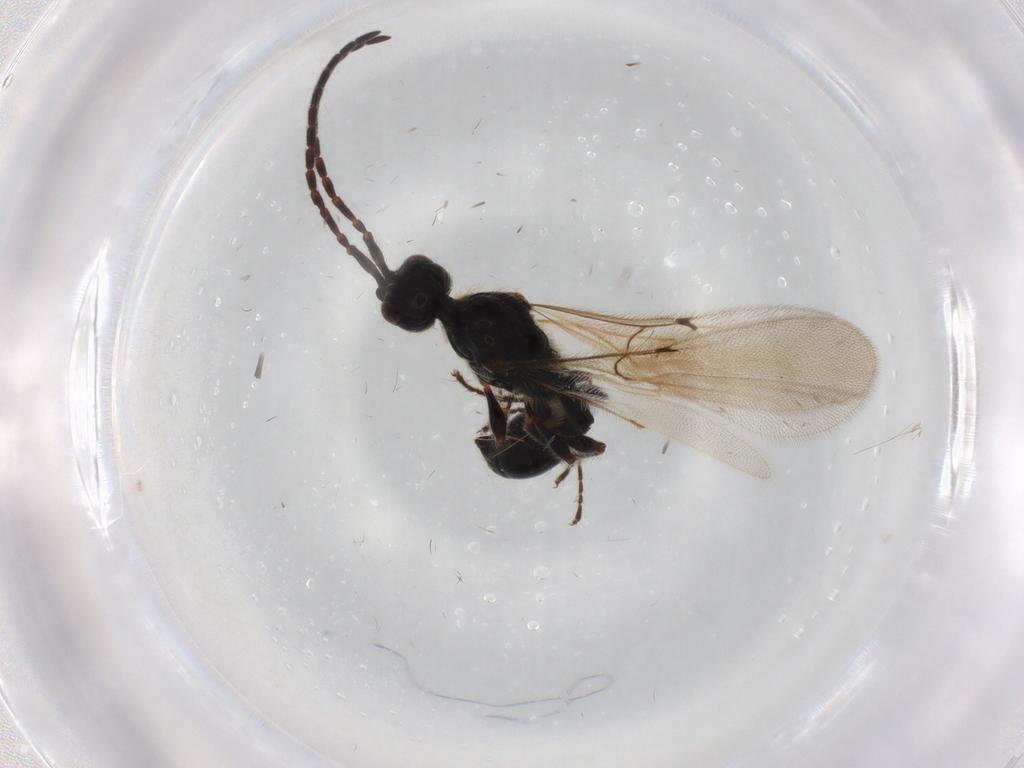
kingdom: Animalia
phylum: Arthropoda
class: Insecta
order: Hymenoptera
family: Diapriidae
